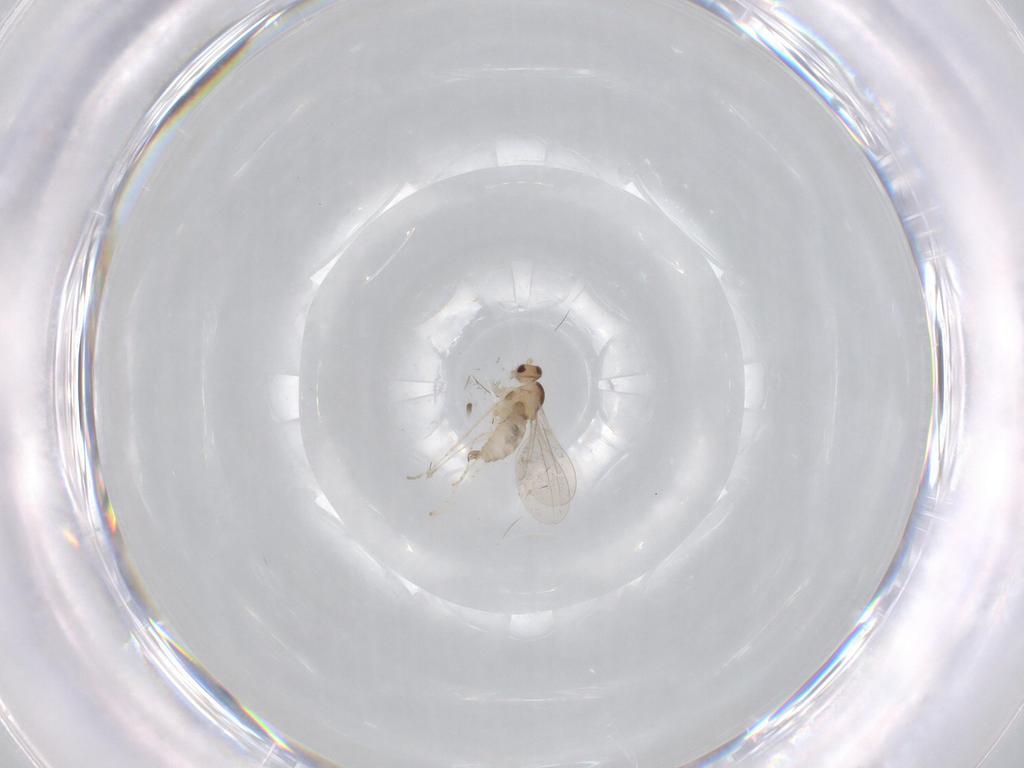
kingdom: Animalia
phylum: Arthropoda
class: Insecta
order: Diptera
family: Cecidomyiidae
